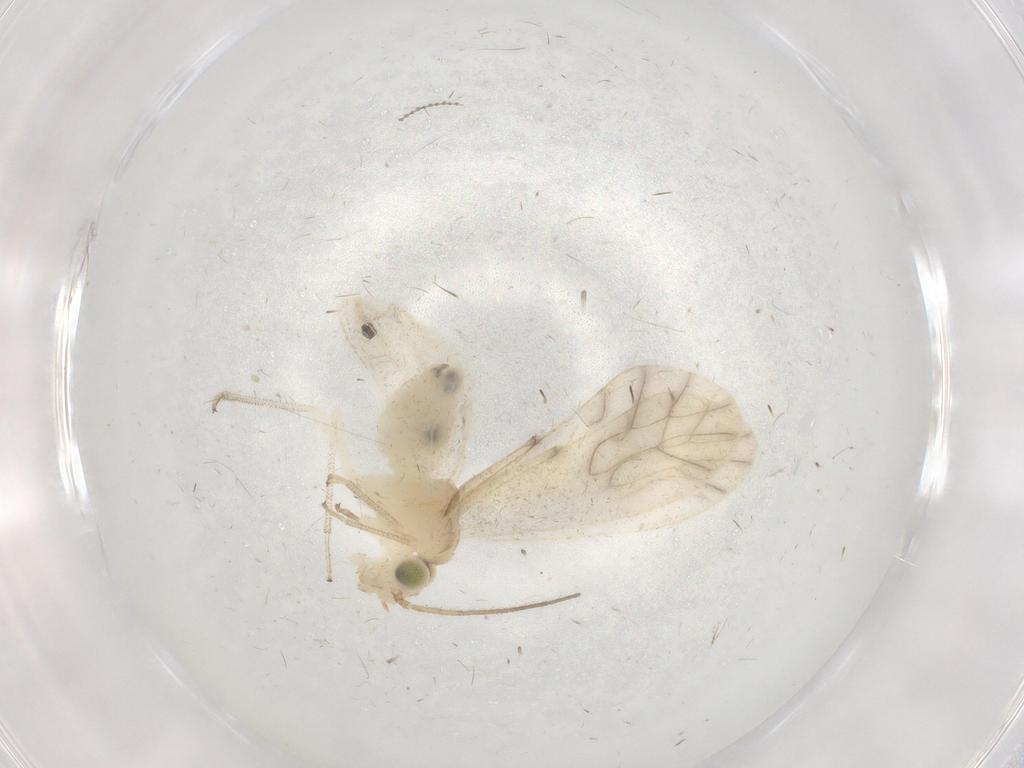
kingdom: Animalia
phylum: Arthropoda
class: Insecta
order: Psocodea
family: Caeciliusidae
